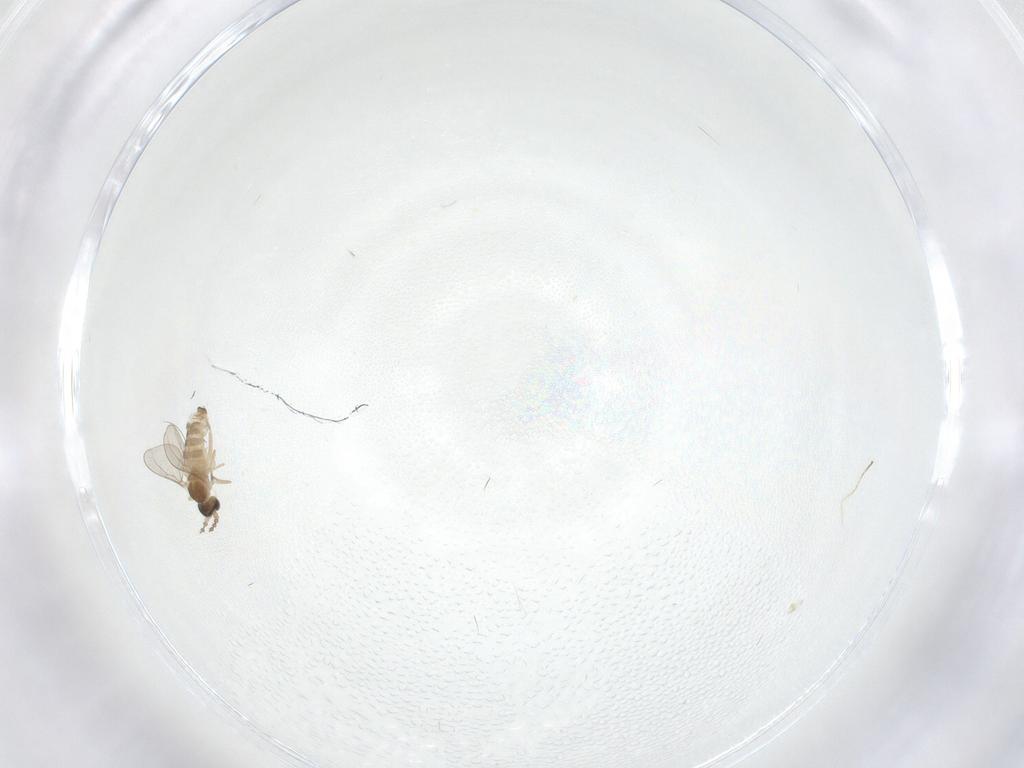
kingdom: Animalia
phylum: Arthropoda
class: Insecta
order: Diptera
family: Cecidomyiidae
